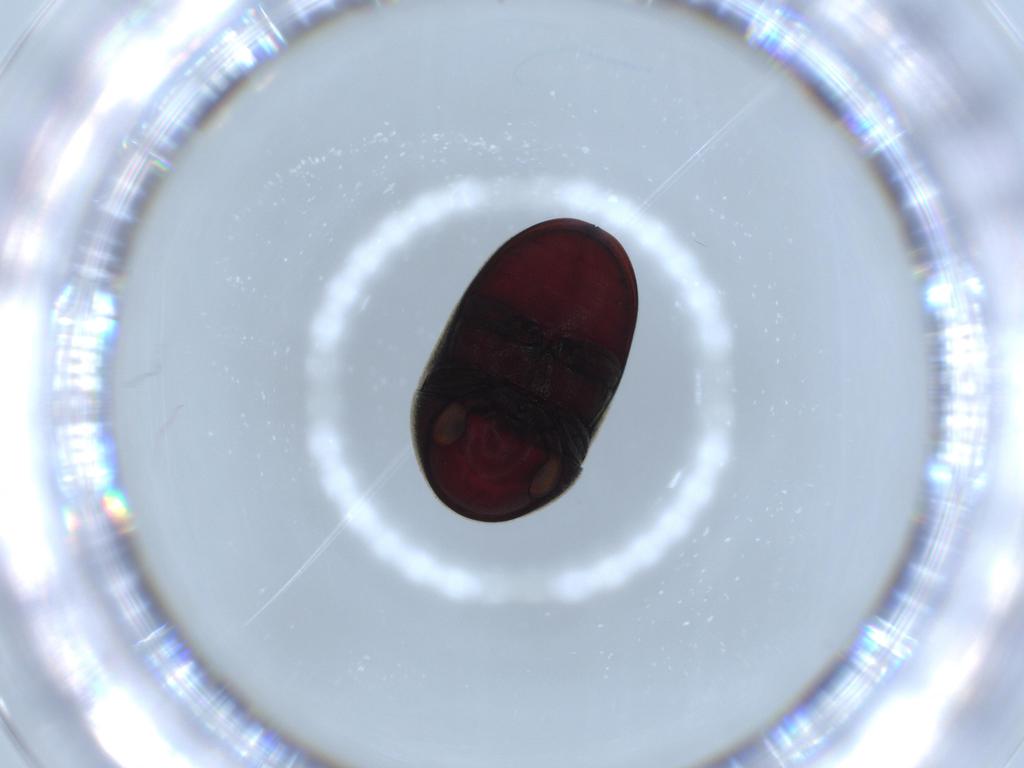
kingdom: Animalia
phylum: Arthropoda
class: Insecta
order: Coleoptera
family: Ptinidae
